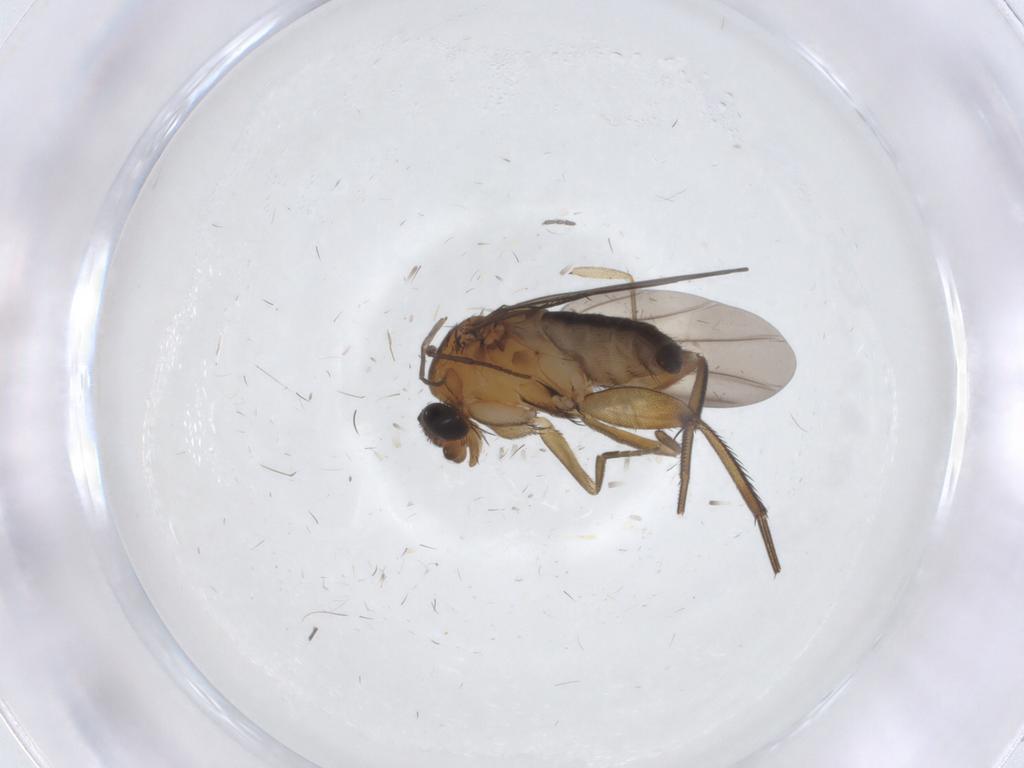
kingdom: Animalia
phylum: Arthropoda
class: Insecta
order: Diptera
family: Phoridae
